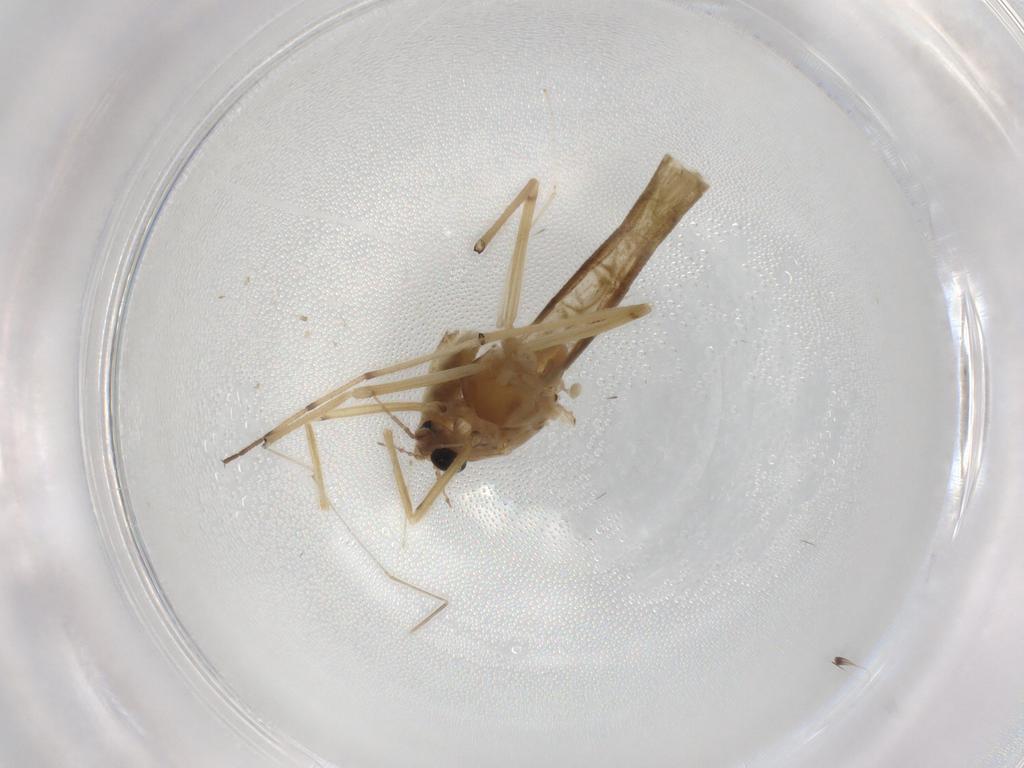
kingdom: Animalia
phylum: Arthropoda
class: Insecta
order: Diptera
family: Chironomidae
